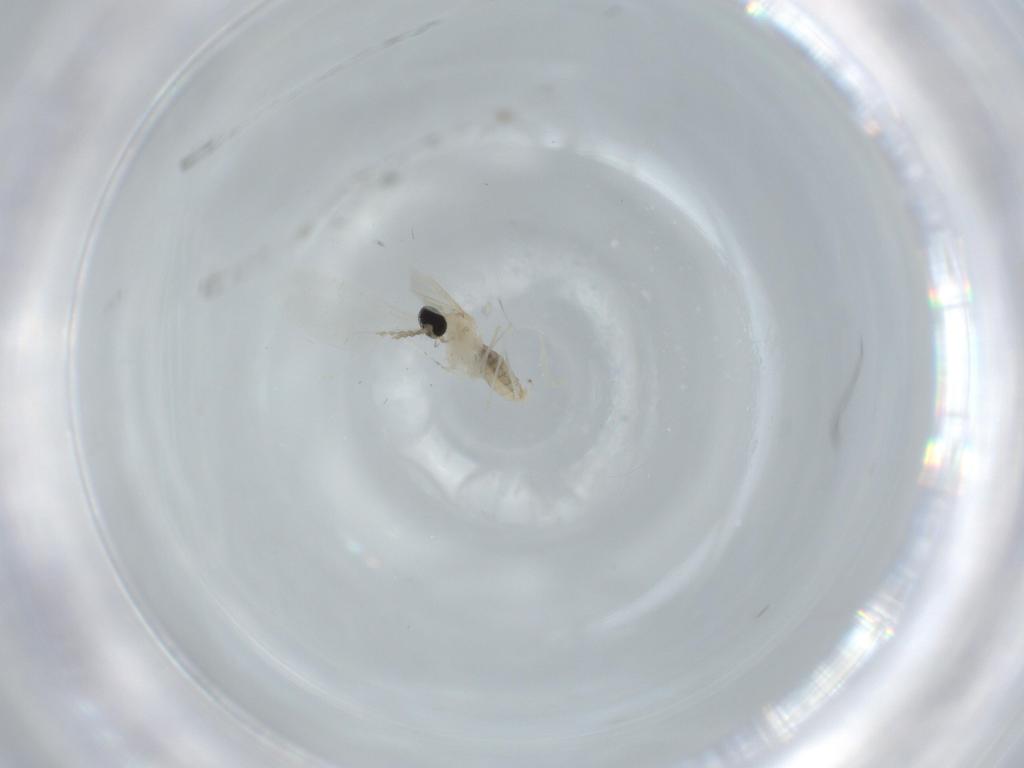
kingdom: Animalia
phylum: Arthropoda
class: Insecta
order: Diptera
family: Cecidomyiidae
